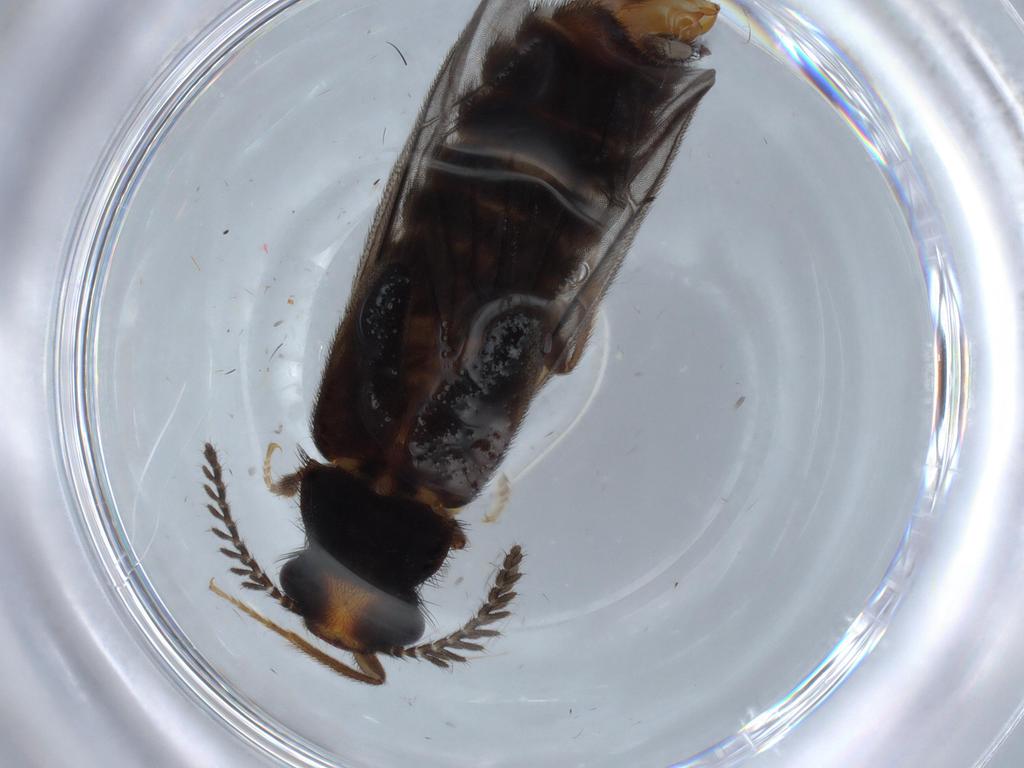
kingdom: Animalia
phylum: Arthropoda
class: Insecta
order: Coleoptera
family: Phengodidae
